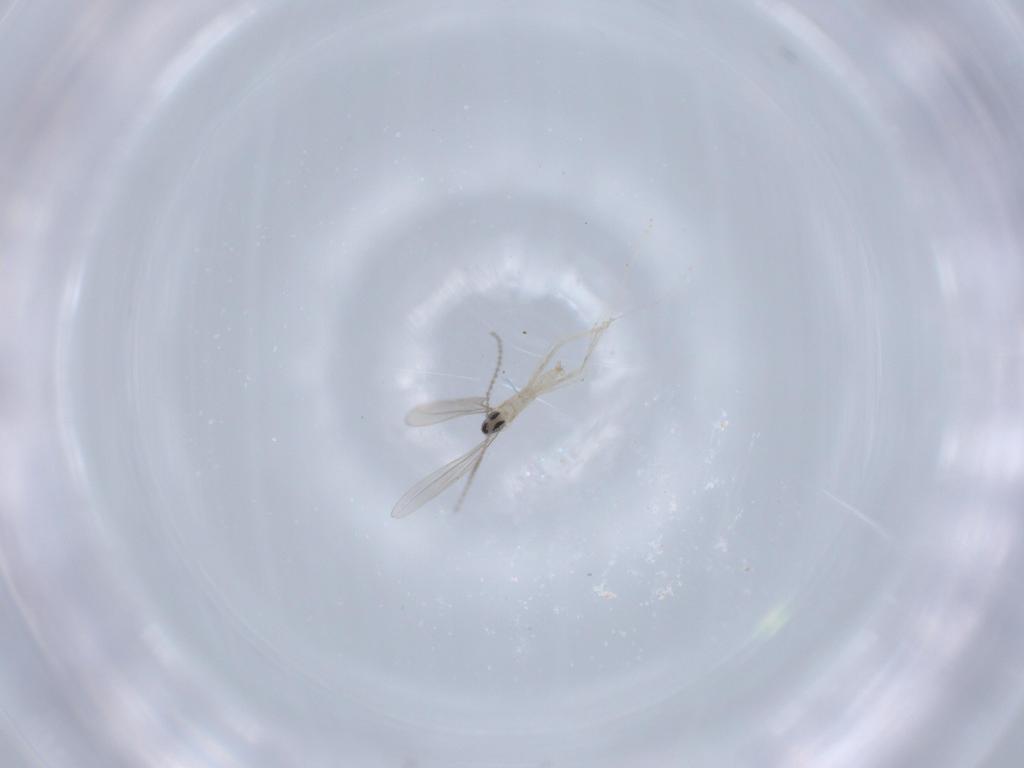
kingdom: Animalia
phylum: Arthropoda
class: Insecta
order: Diptera
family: Cecidomyiidae
